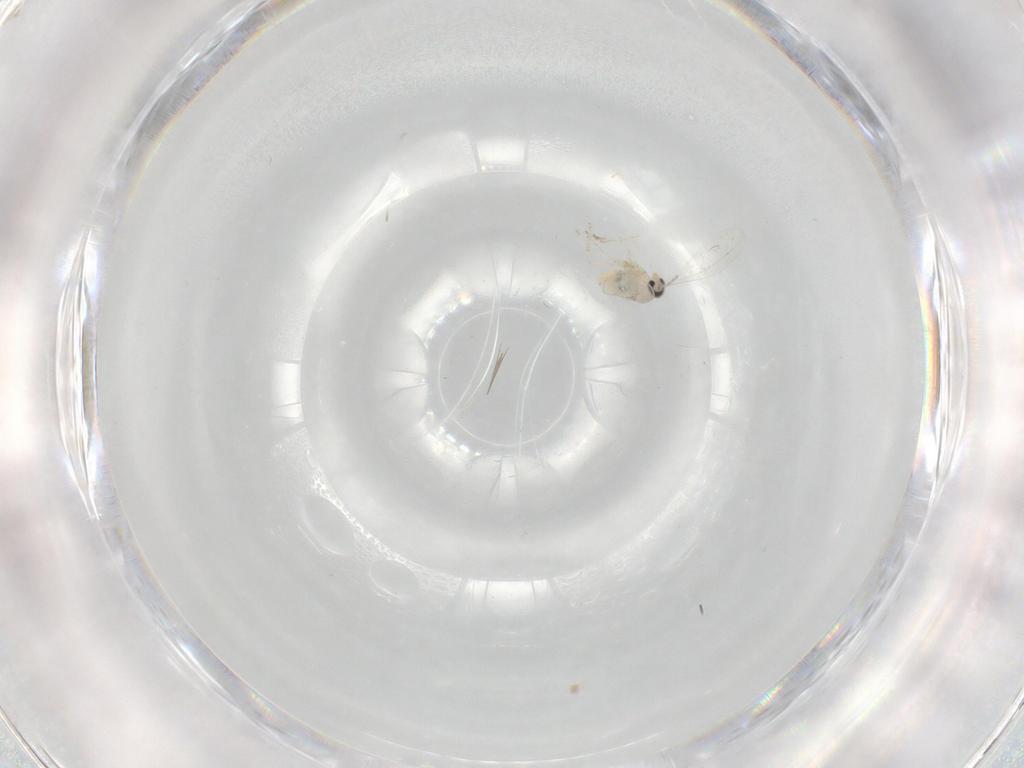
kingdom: Animalia
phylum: Arthropoda
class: Insecta
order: Diptera
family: Cecidomyiidae
